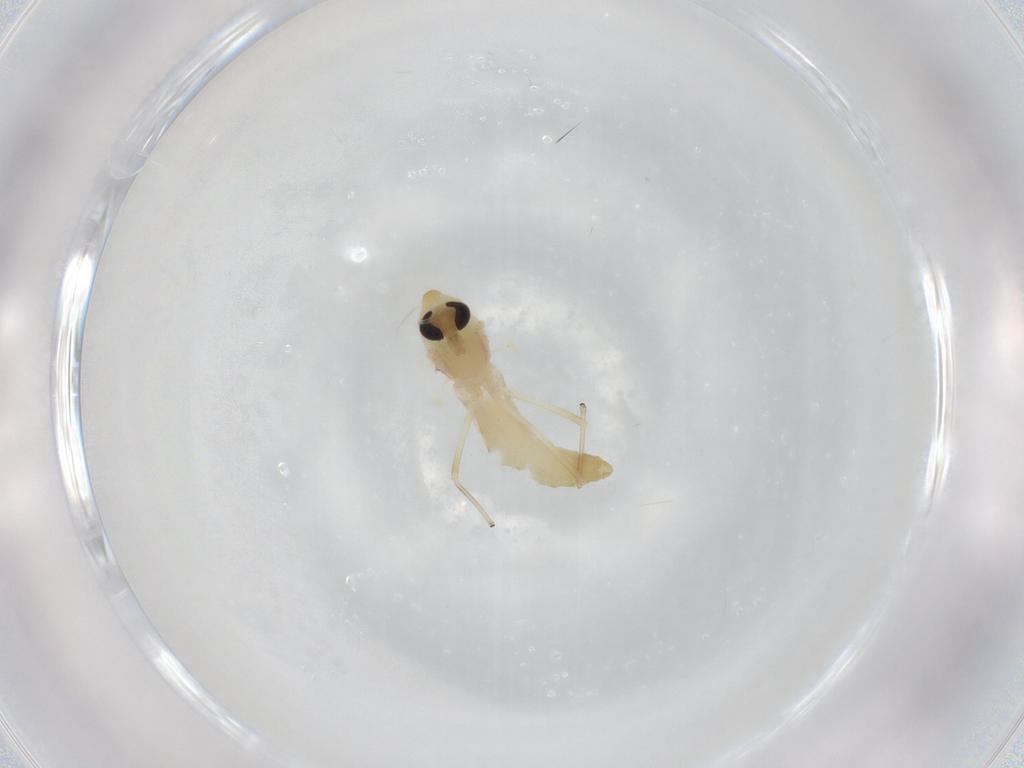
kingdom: Animalia
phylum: Arthropoda
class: Insecta
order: Diptera
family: Chironomidae
